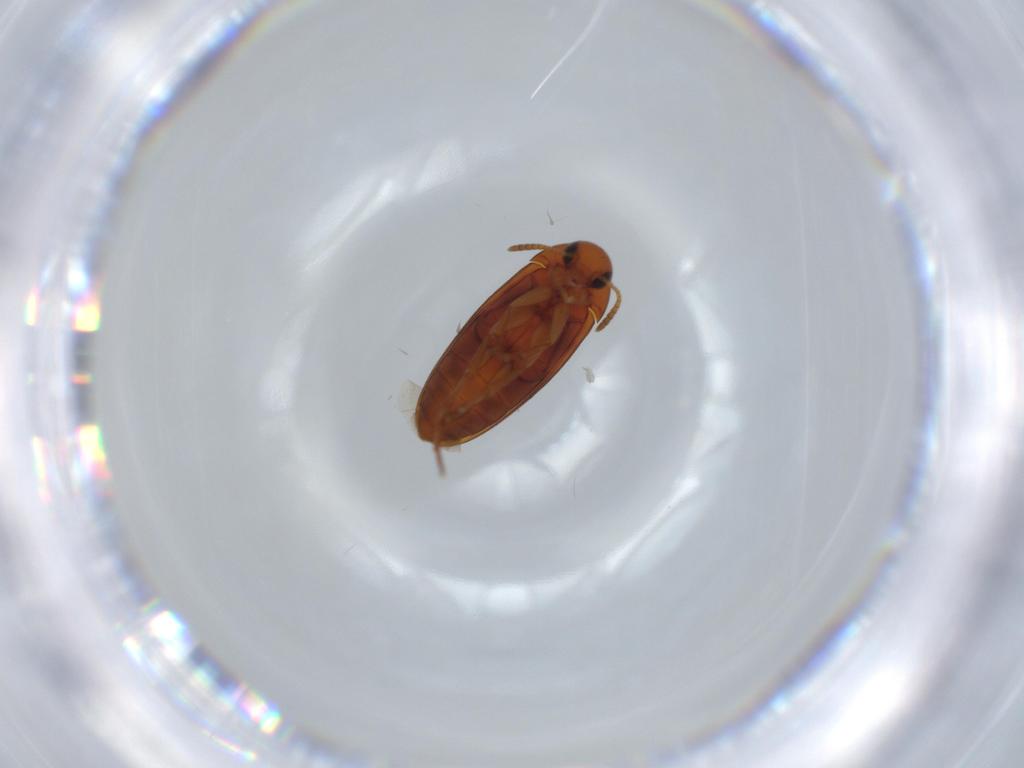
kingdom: Animalia
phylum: Arthropoda
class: Insecta
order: Coleoptera
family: Scraptiidae
